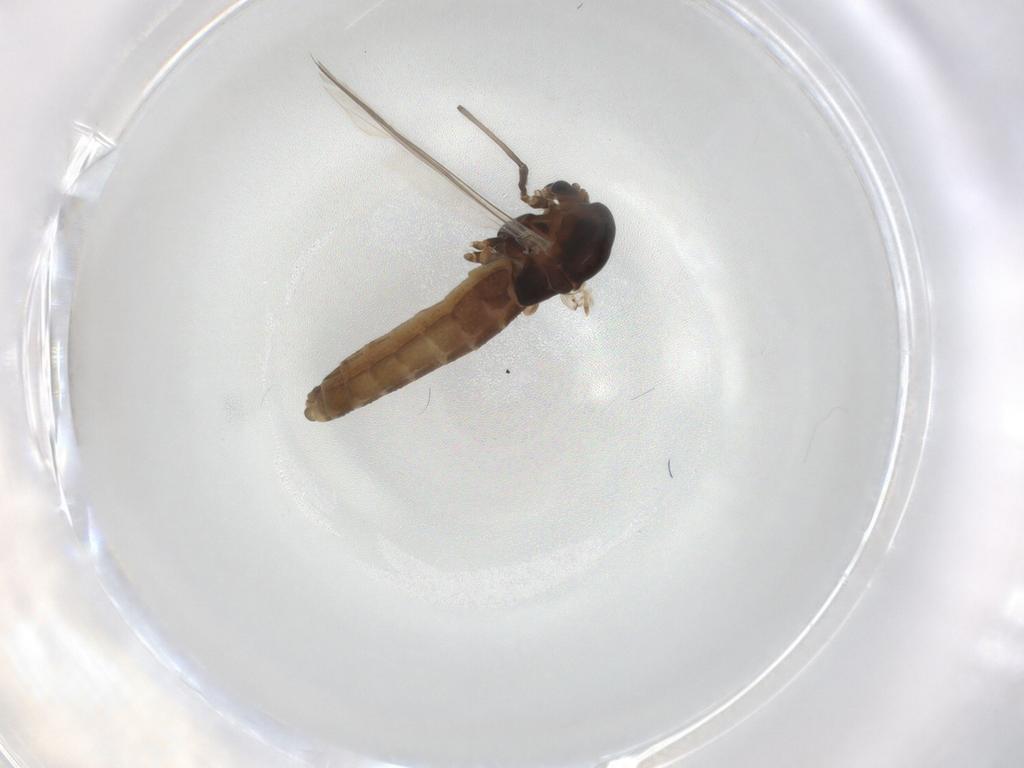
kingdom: Animalia
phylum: Arthropoda
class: Insecta
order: Diptera
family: Chironomidae
